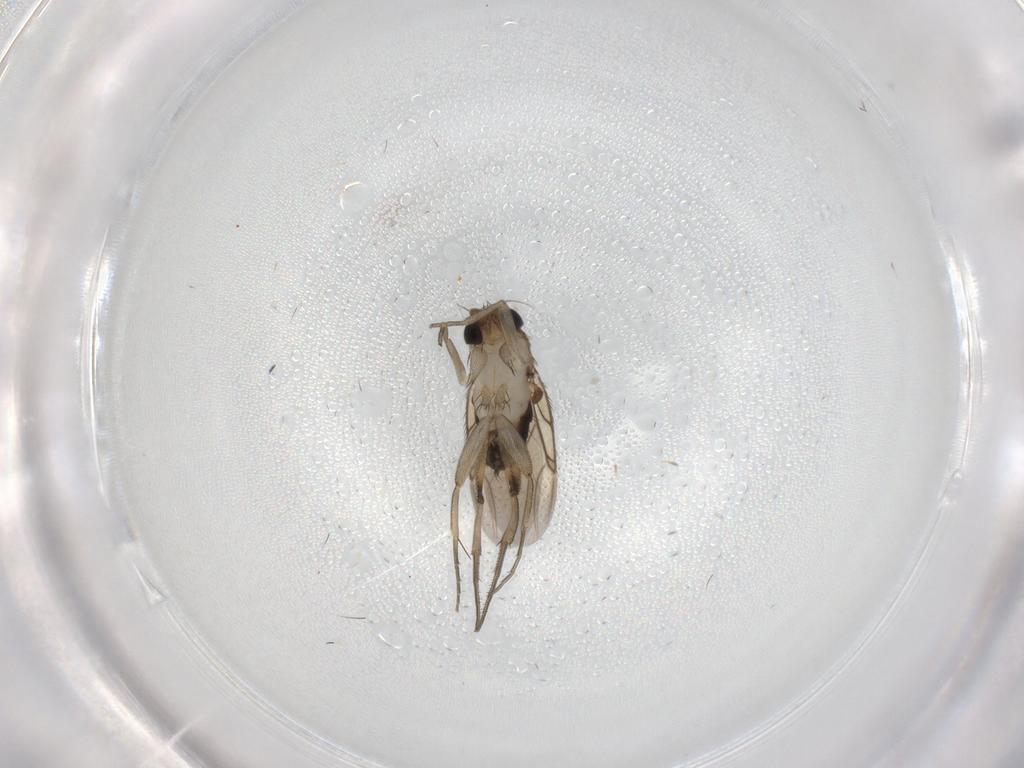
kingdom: Animalia
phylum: Arthropoda
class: Insecta
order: Diptera
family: Phoridae
